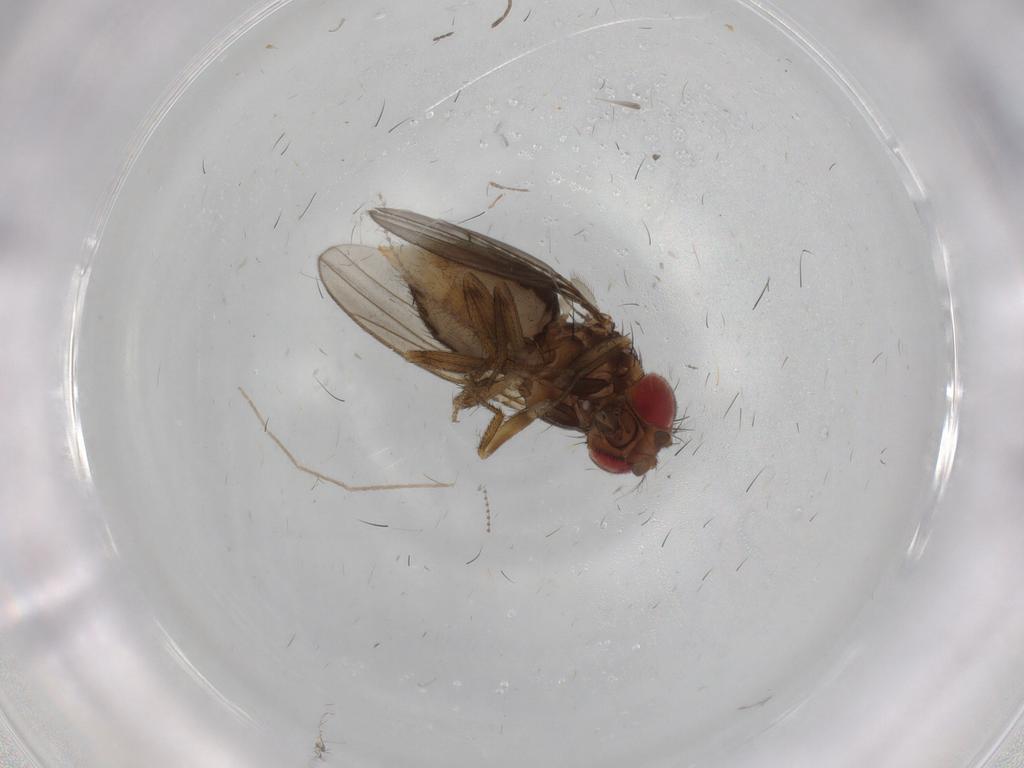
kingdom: Animalia
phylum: Arthropoda
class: Insecta
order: Diptera
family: Drosophilidae
